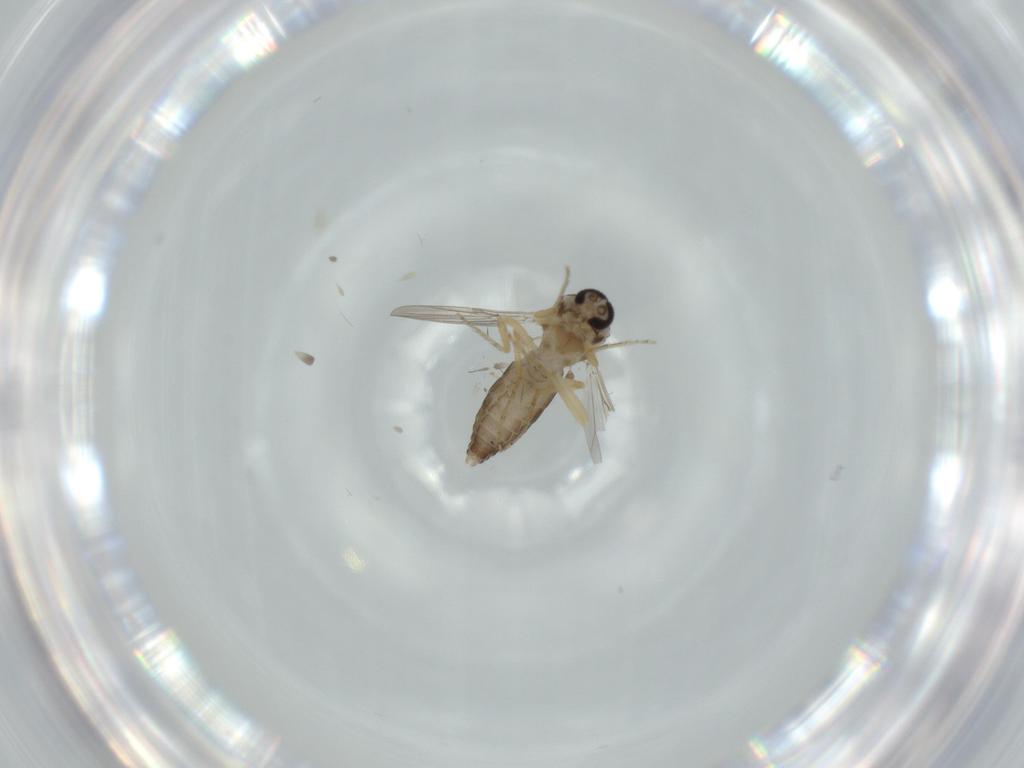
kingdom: Animalia
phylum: Arthropoda
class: Insecta
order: Diptera
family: Ceratopogonidae
